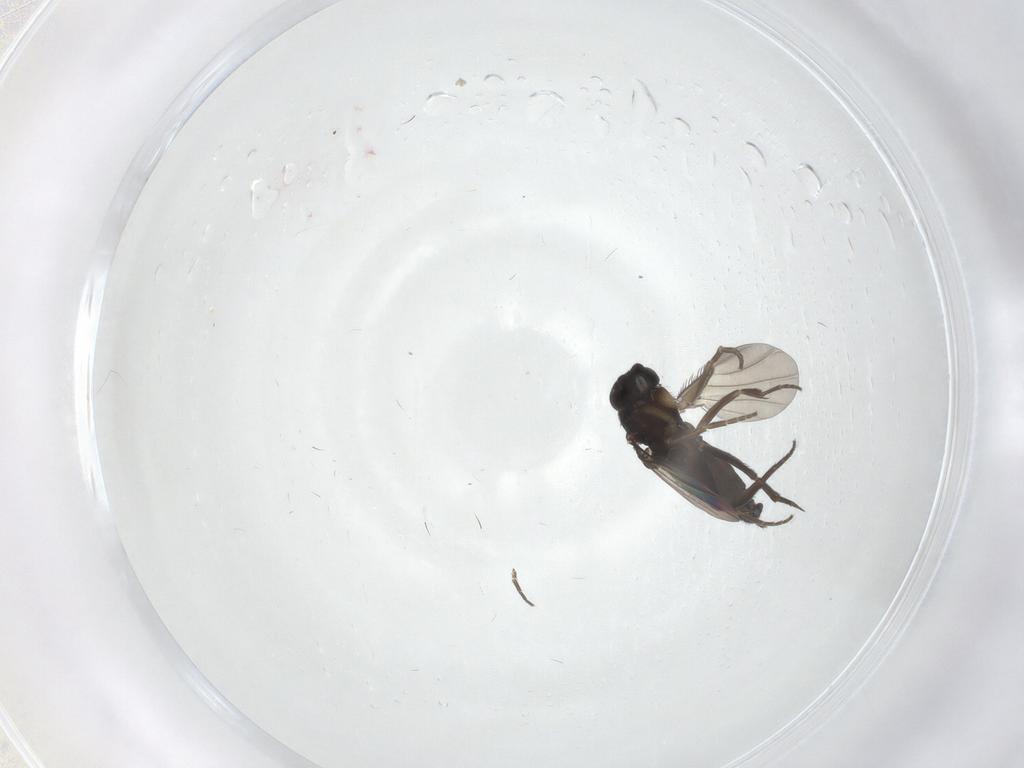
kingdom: Animalia
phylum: Arthropoda
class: Insecta
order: Diptera
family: Phoridae
